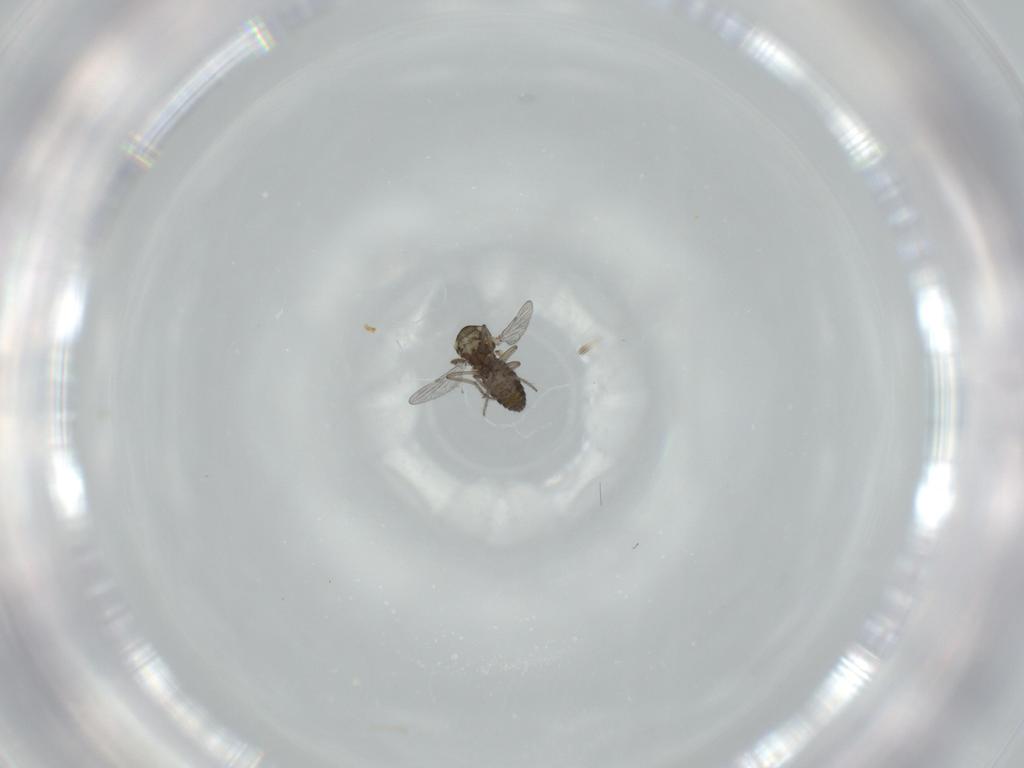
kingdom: Animalia
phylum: Arthropoda
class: Insecta
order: Diptera
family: Ceratopogonidae
